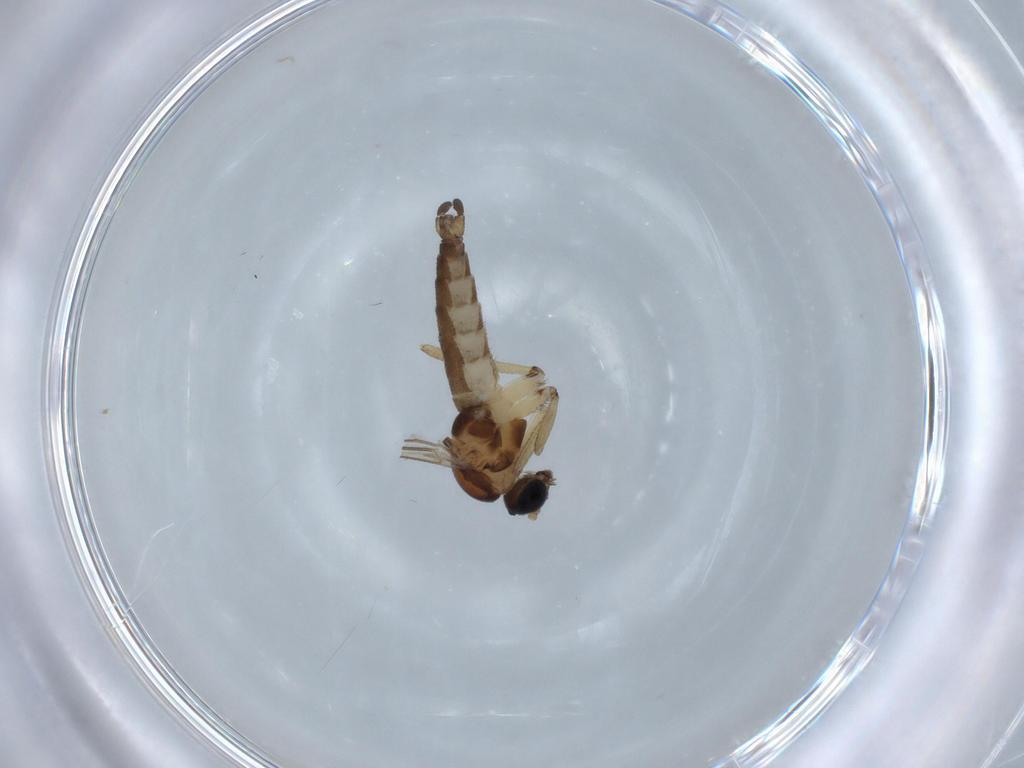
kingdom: Animalia
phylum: Arthropoda
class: Insecta
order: Diptera
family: Sciaridae
